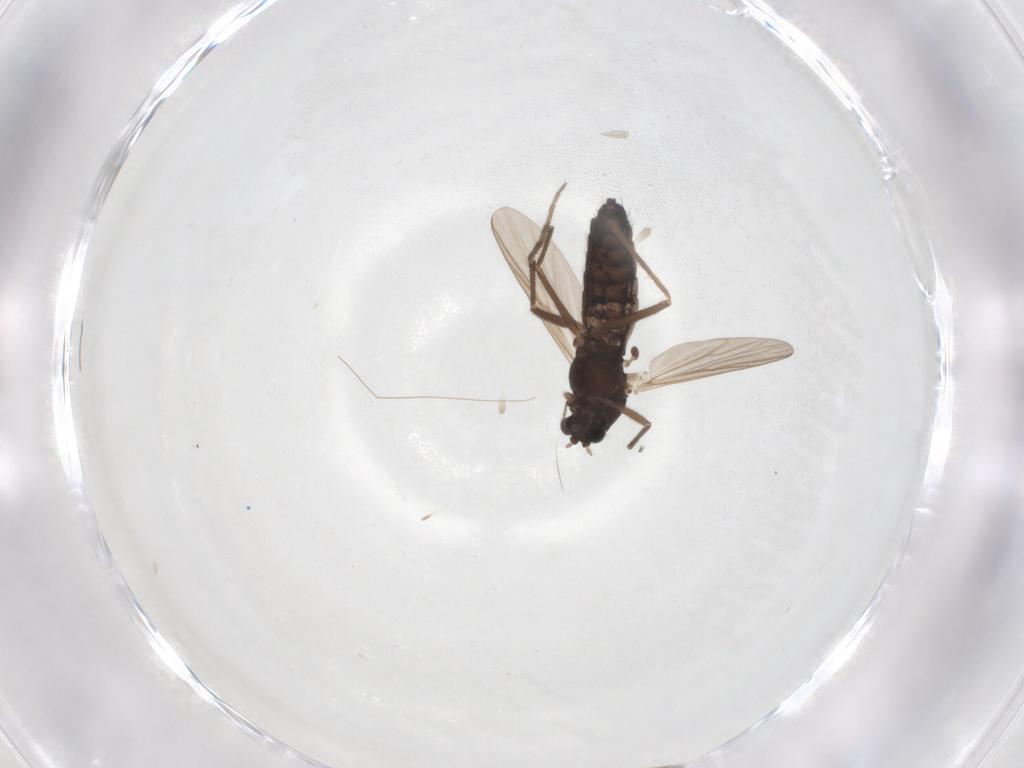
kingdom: Animalia
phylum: Arthropoda
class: Insecta
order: Diptera
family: Chironomidae
